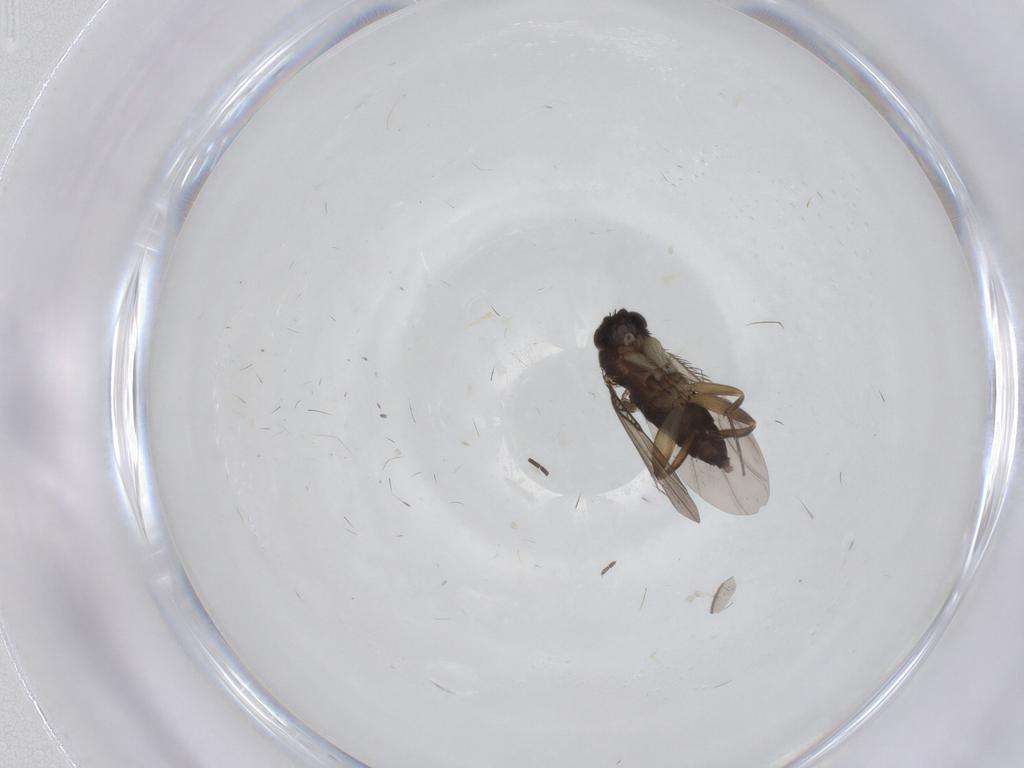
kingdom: Animalia
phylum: Arthropoda
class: Insecta
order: Diptera
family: Phoridae
